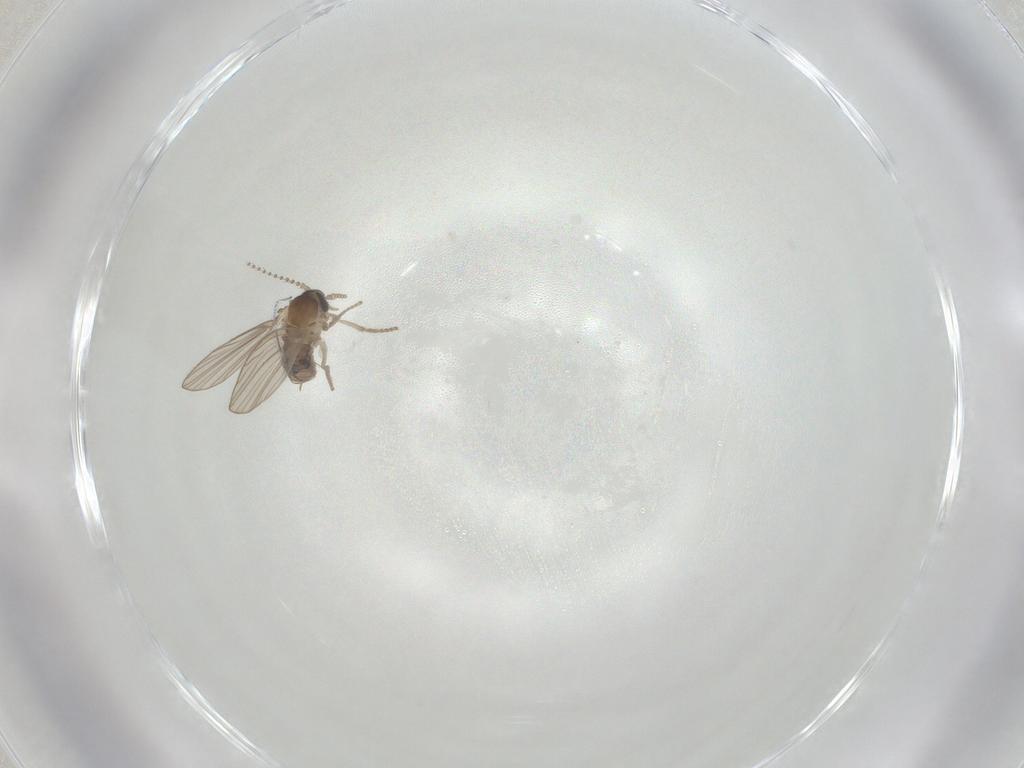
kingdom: Animalia
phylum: Arthropoda
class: Insecta
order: Diptera
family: Psychodidae
